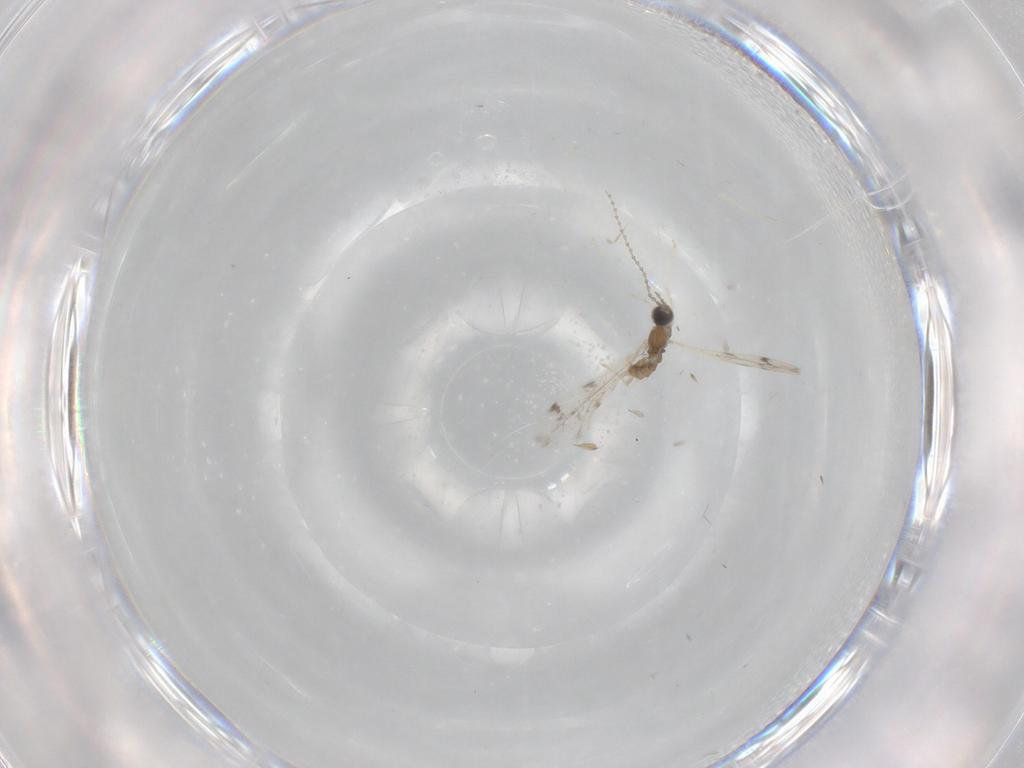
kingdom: Animalia
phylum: Arthropoda
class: Insecta
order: Diptera
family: Cecidomyiidae
